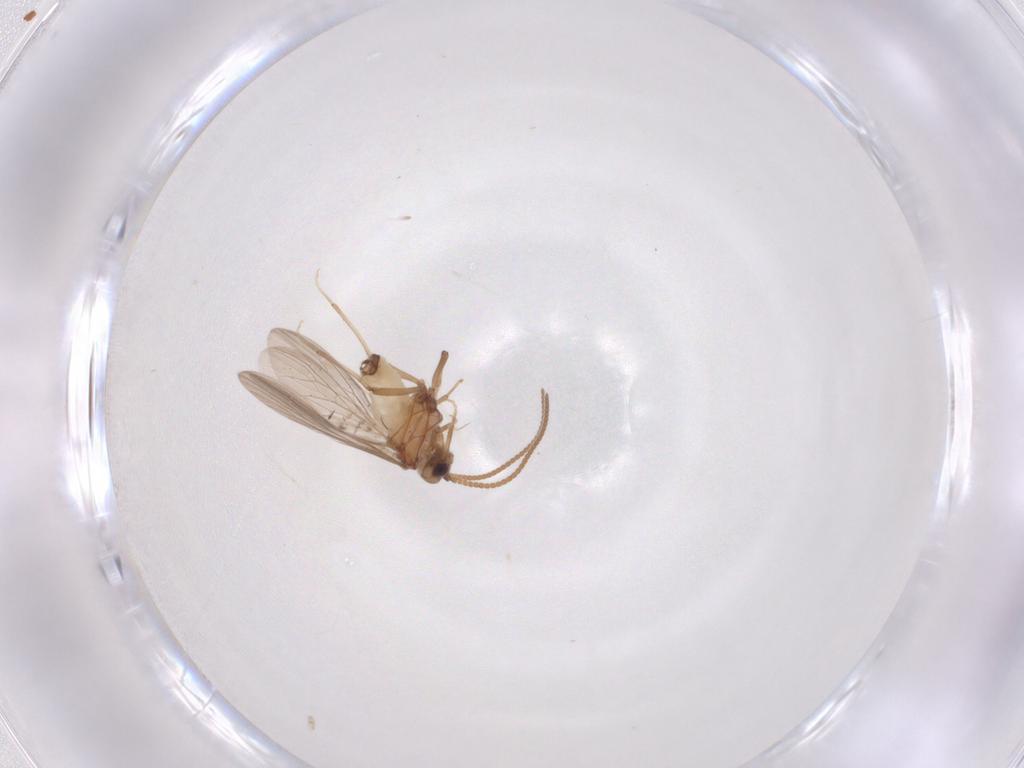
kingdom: Animalia
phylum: Arthropoda
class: Insecta
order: Neuroptera
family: Coniopterygidae
